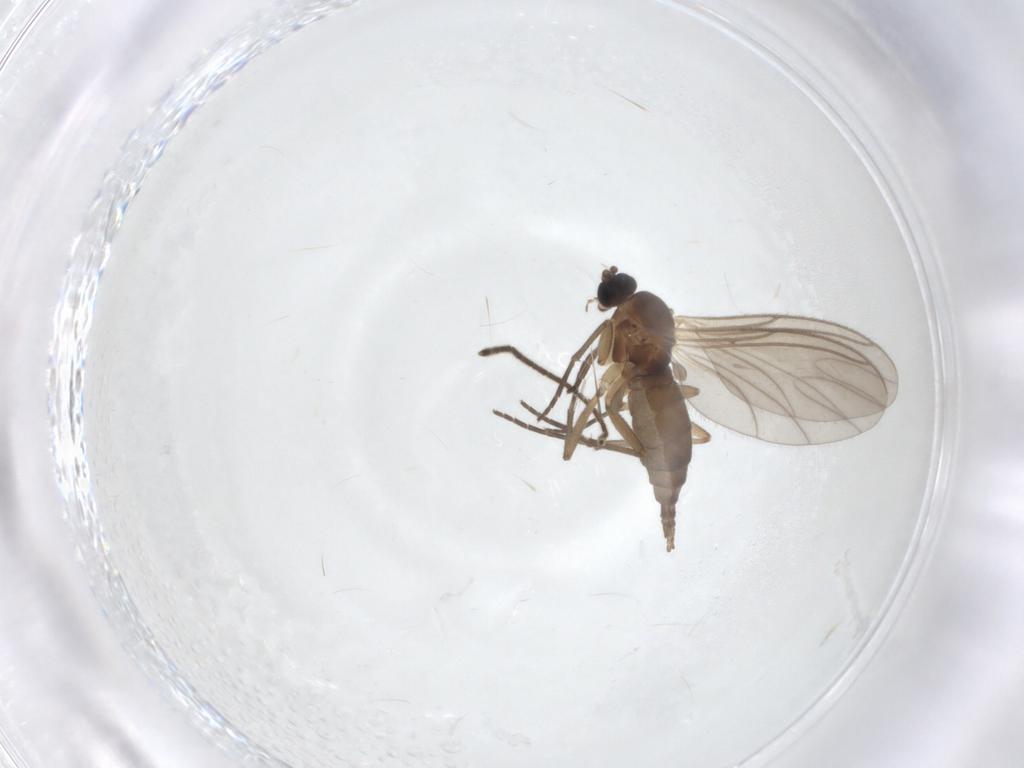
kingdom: Animalia
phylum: Arthropoda
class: Insecta
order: Diptera
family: Sciaridae
